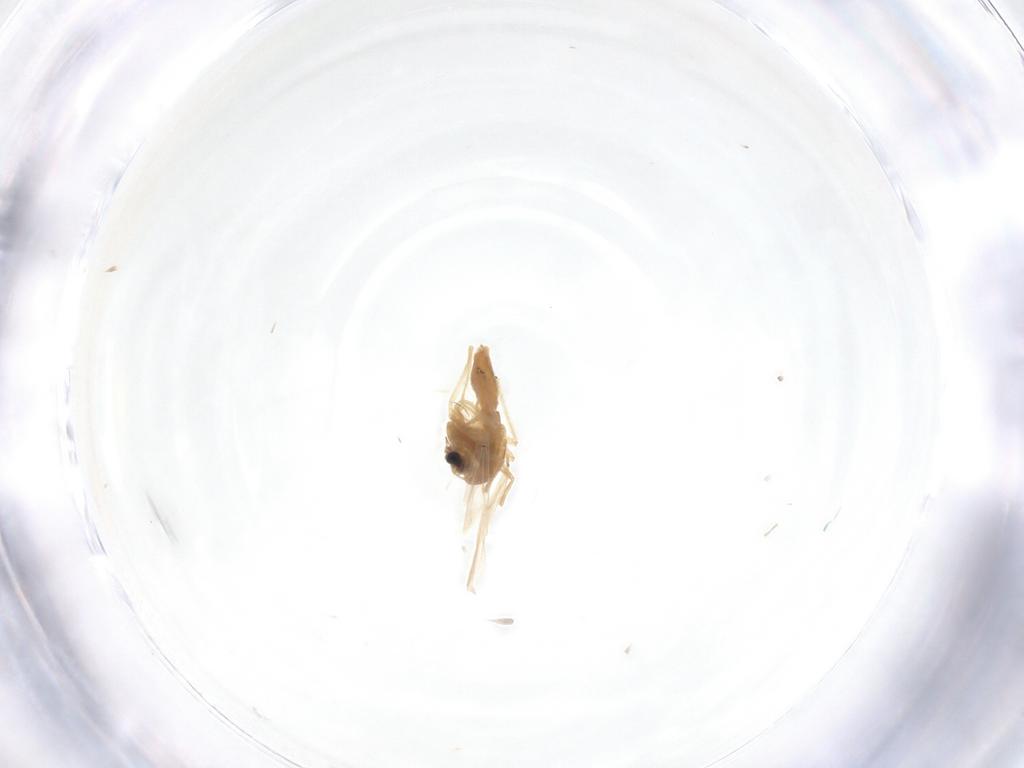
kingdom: Animalia
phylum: Arthropoda
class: Insecta
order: Diptera
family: Chironomidae
